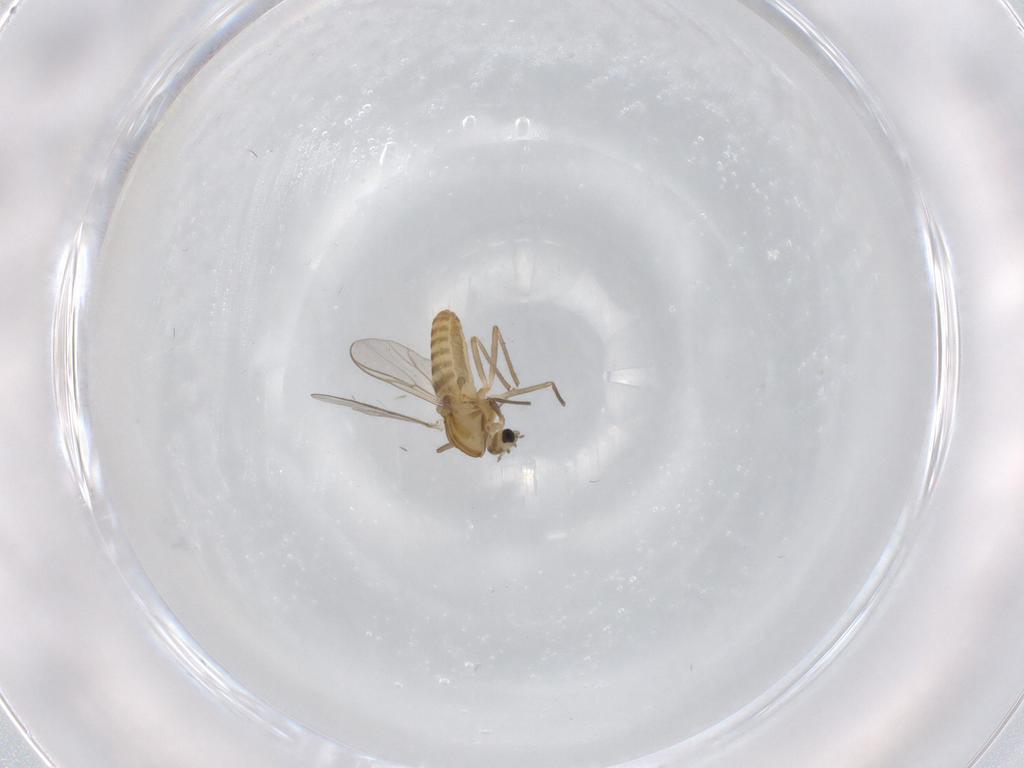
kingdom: Animalia
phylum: Arthropoda
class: Insecta
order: Diptera
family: Chironomidae
